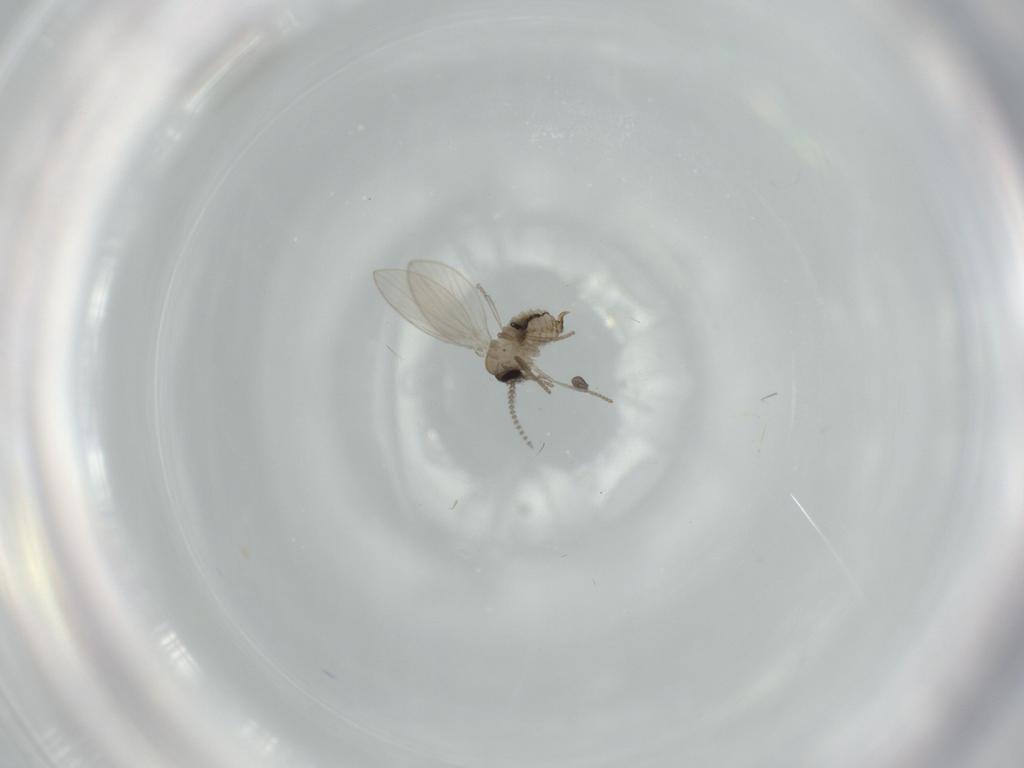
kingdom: Animalia
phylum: Arthropoda
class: Insecta
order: Diptera
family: Psychodidae
